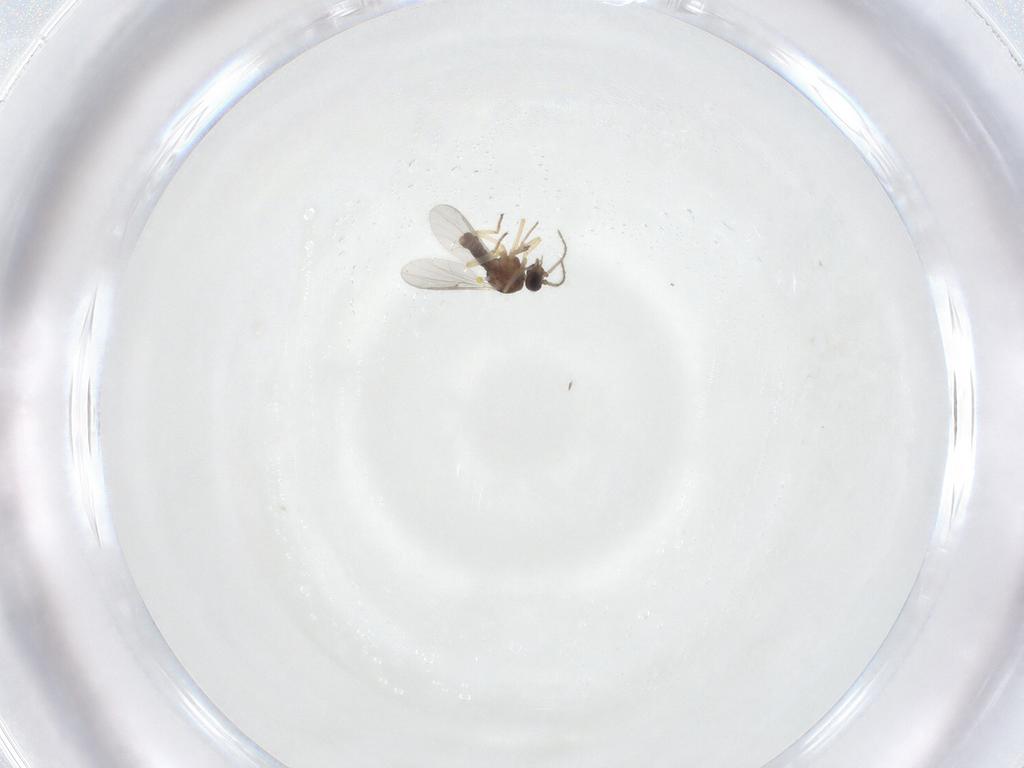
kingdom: Animalia
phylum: Arthropoda
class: Insecta
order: Diptera
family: Ceratopogonidae
